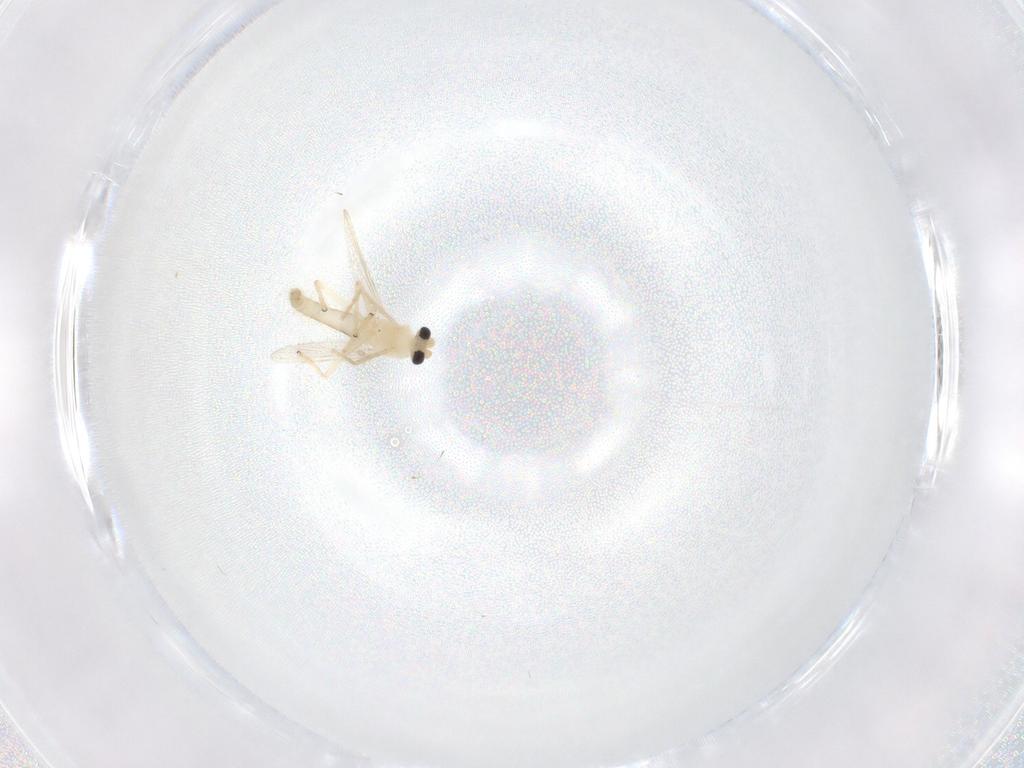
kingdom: Animalia
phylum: Arthropoda
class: Insecta
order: Diptera
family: Chironomidae
